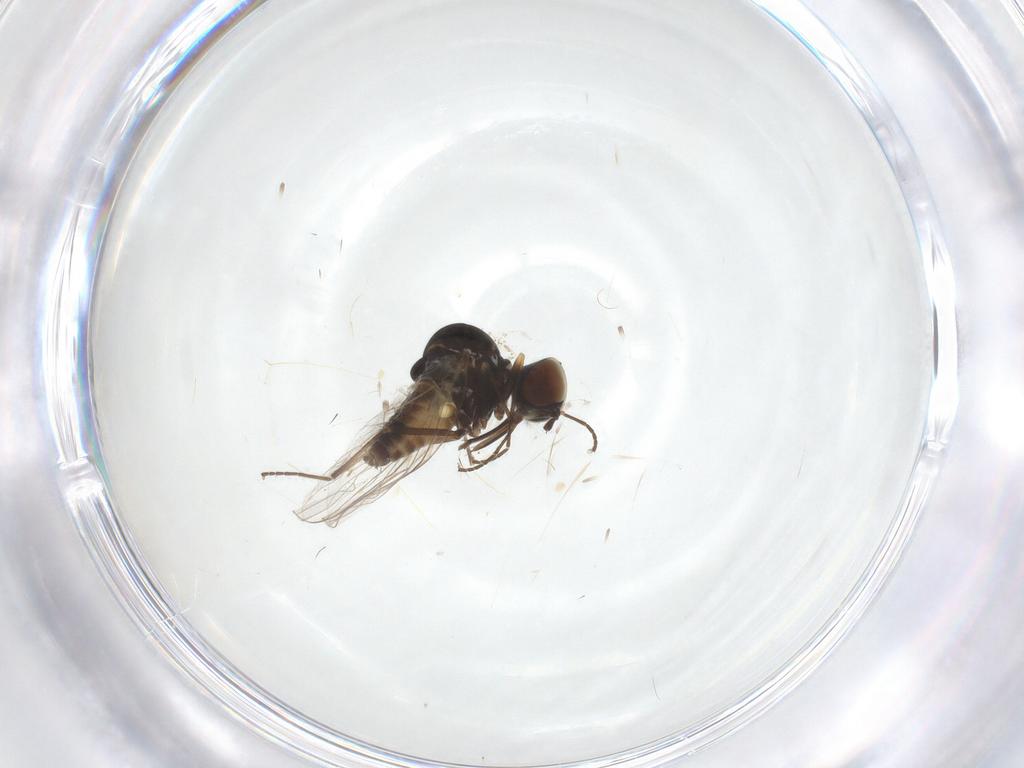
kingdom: Animalia
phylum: Arthropoda
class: Insecta
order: Diptera
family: Bombyliidae
